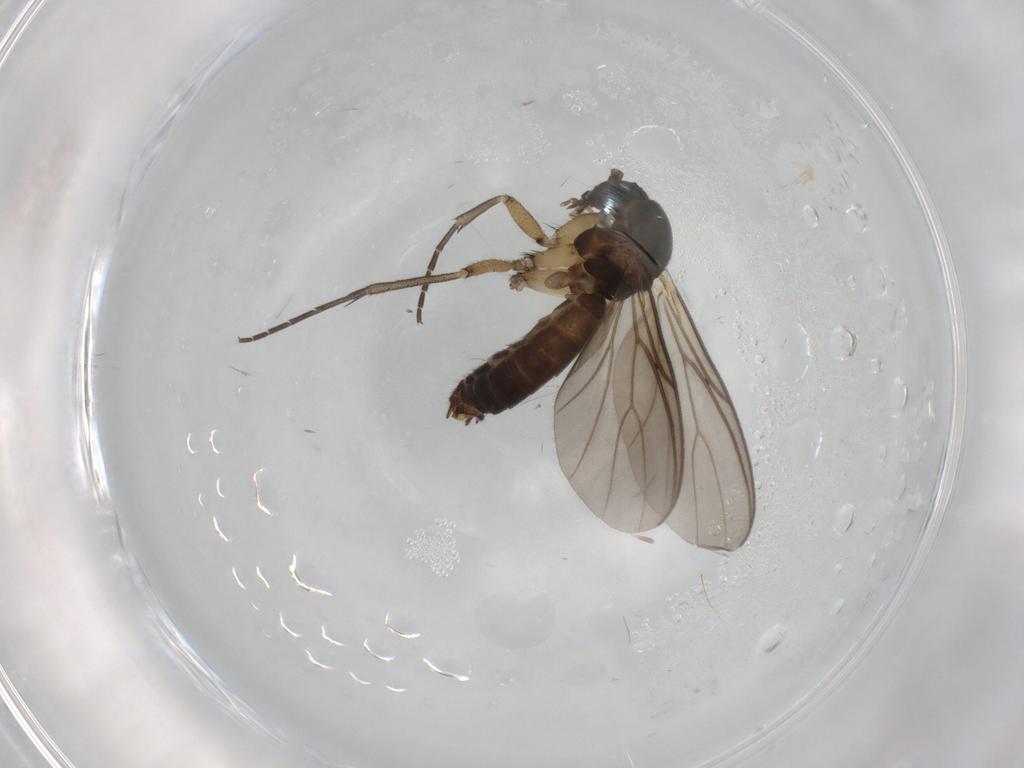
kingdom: Animalia
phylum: Arthropoda
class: Insecta
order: Diptera
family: Mycetophilidae
